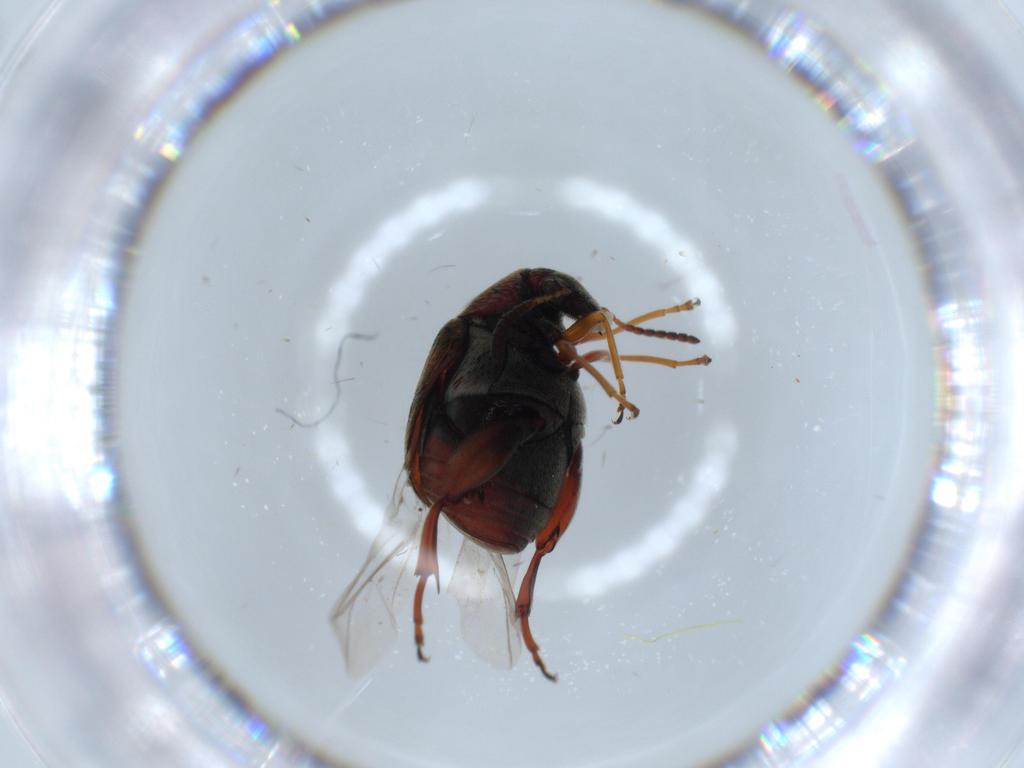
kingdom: Animalia
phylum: Arthropoda
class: Insecta
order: Coleoptera
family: Chrysomelidae
